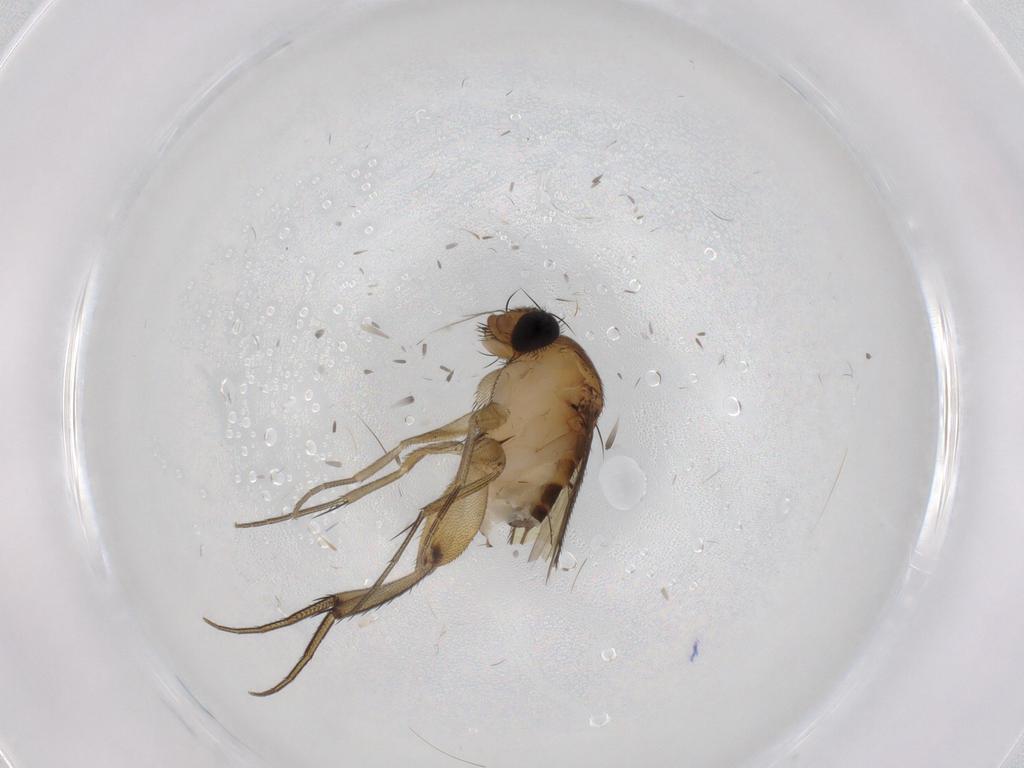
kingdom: Animalia
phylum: Arthropoda
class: Insecta
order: Diptera
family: Phoridae
